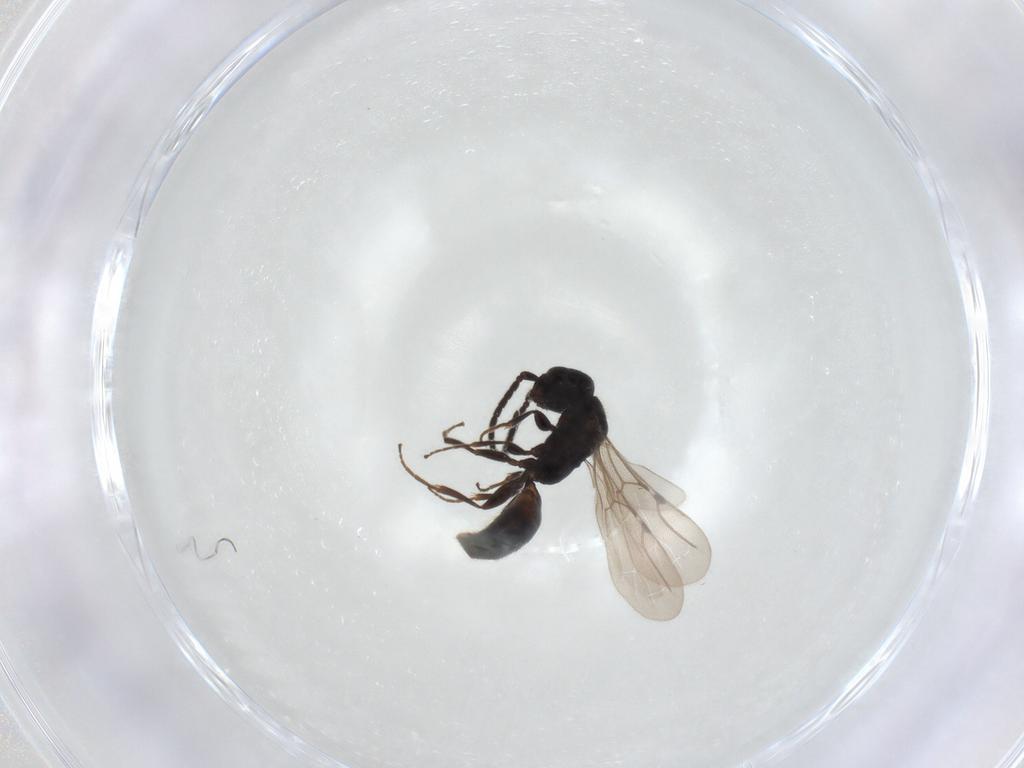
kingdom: Animalia
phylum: Arthropoda
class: Insecta
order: Hymenoptera
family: Bethylidae
